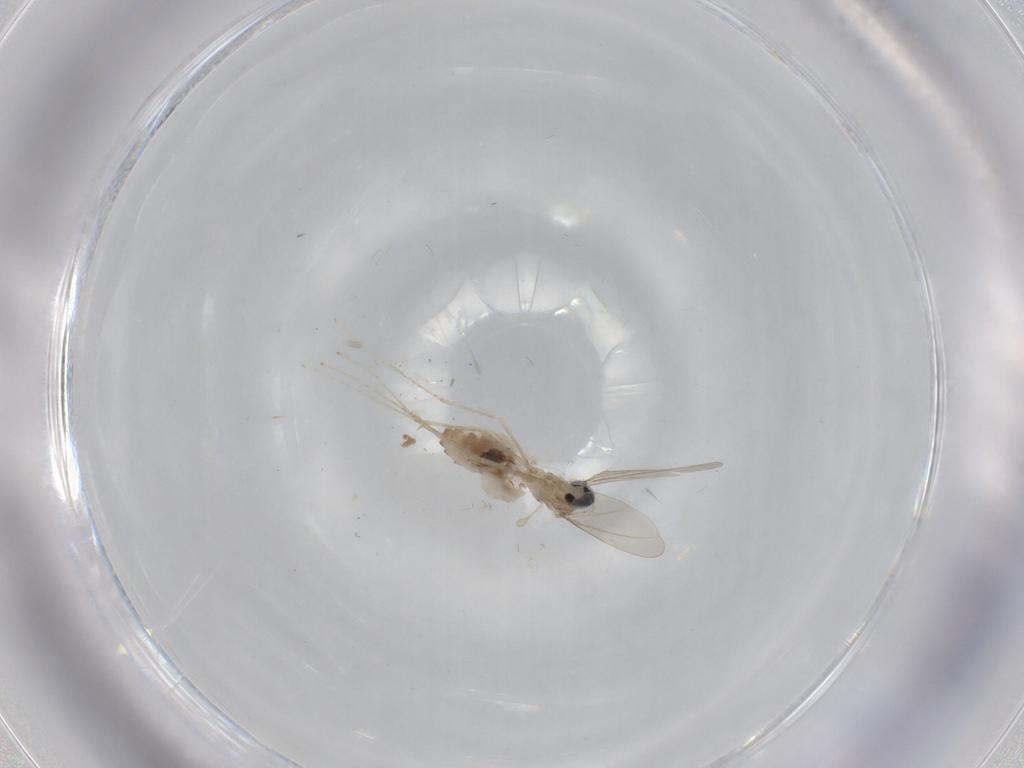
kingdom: Animalia
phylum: Arthropoda
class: Insecta
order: Diptera
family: Cecidomyiidae
